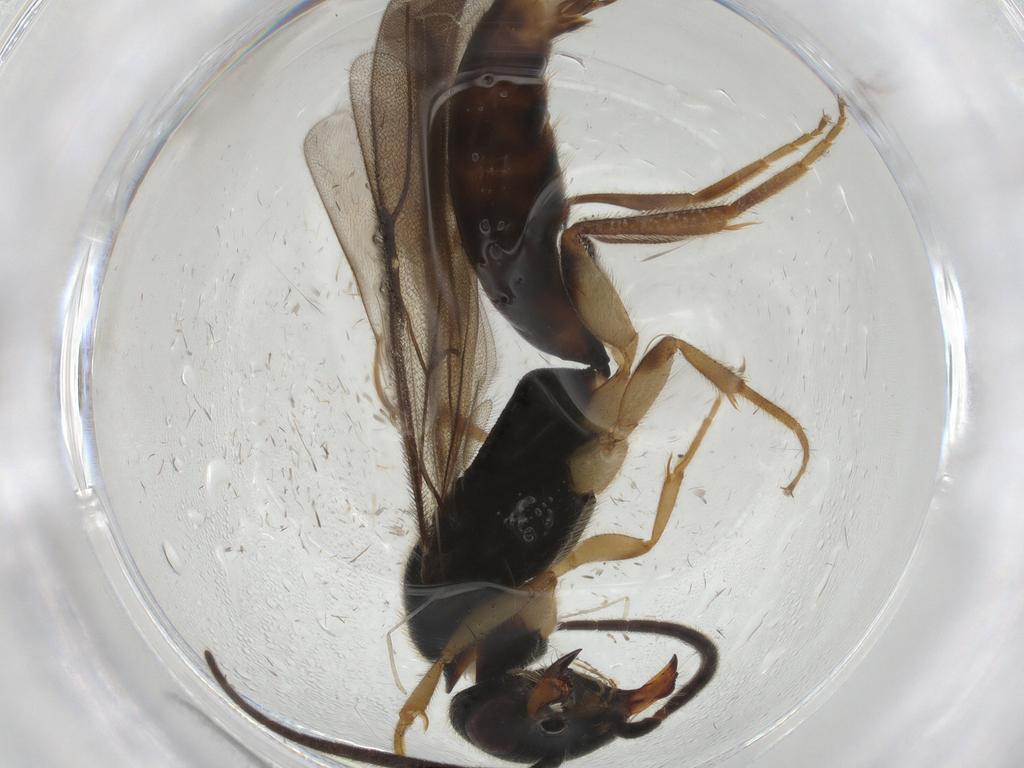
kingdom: Animalia
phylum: Arthropoda
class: Insecta
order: Hymenoptera
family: Bethylidae
